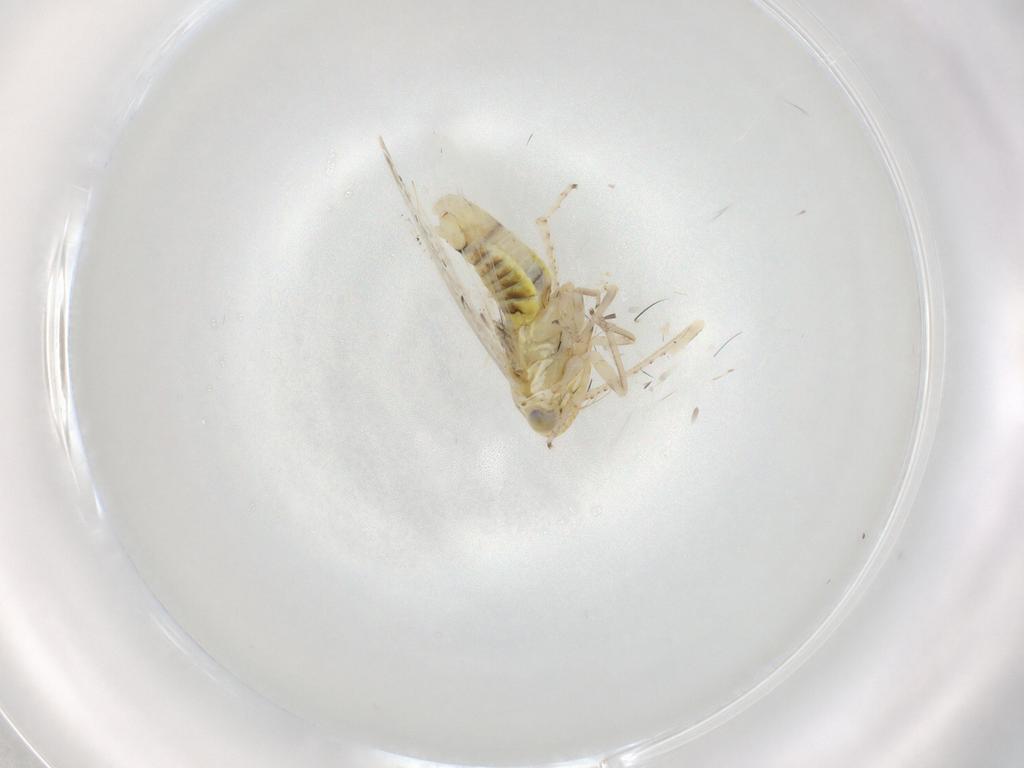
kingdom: Animalia
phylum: Arthropoda
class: Insecta
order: Hemiptera
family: Cicadellidae
